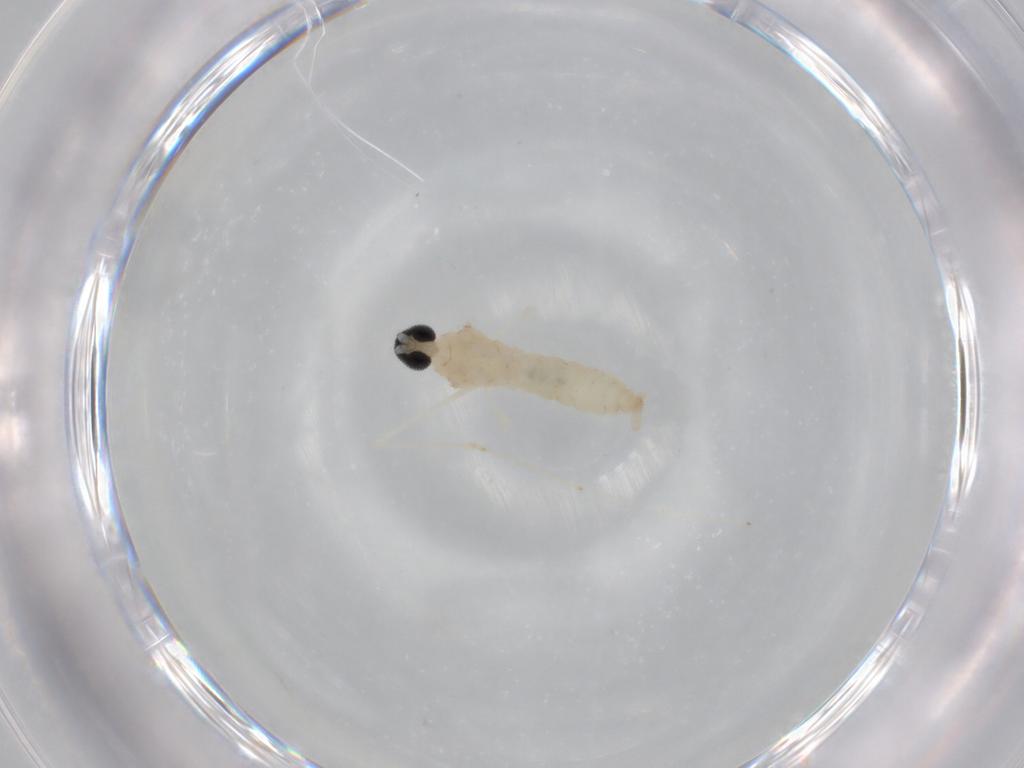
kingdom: Animalia
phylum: Arthropoda
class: Insecta
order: Diptera
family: Cecidomyiidae
